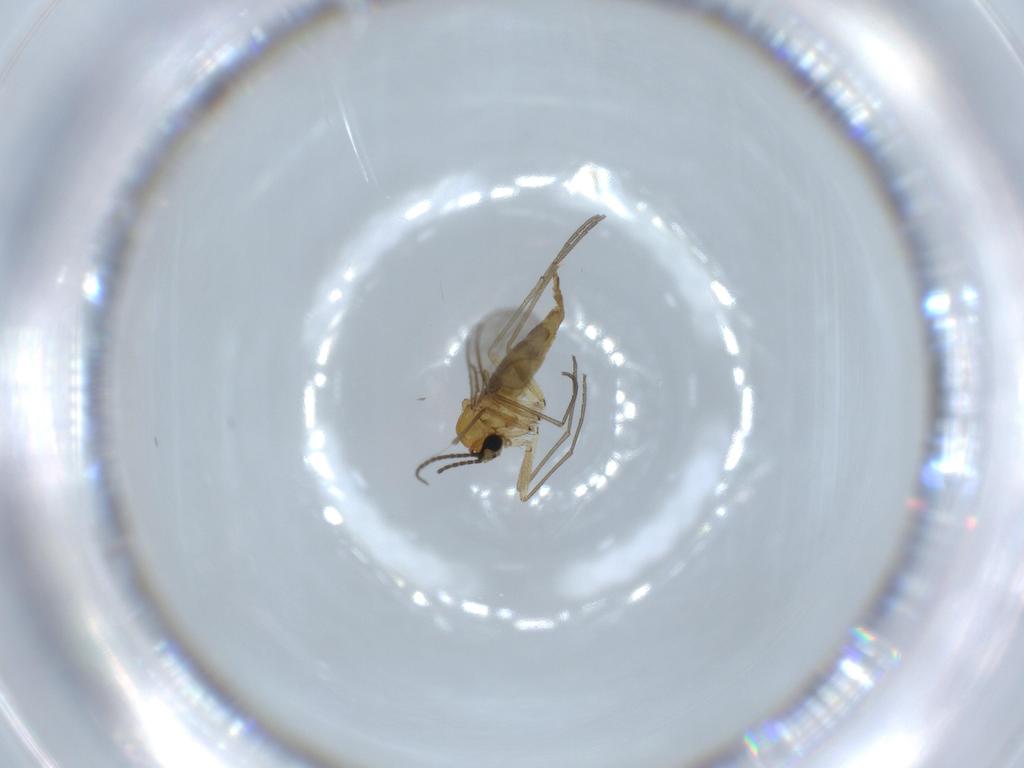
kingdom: Animalia
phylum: Arthropoda
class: Insecta
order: Diptera
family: Sciaridae
